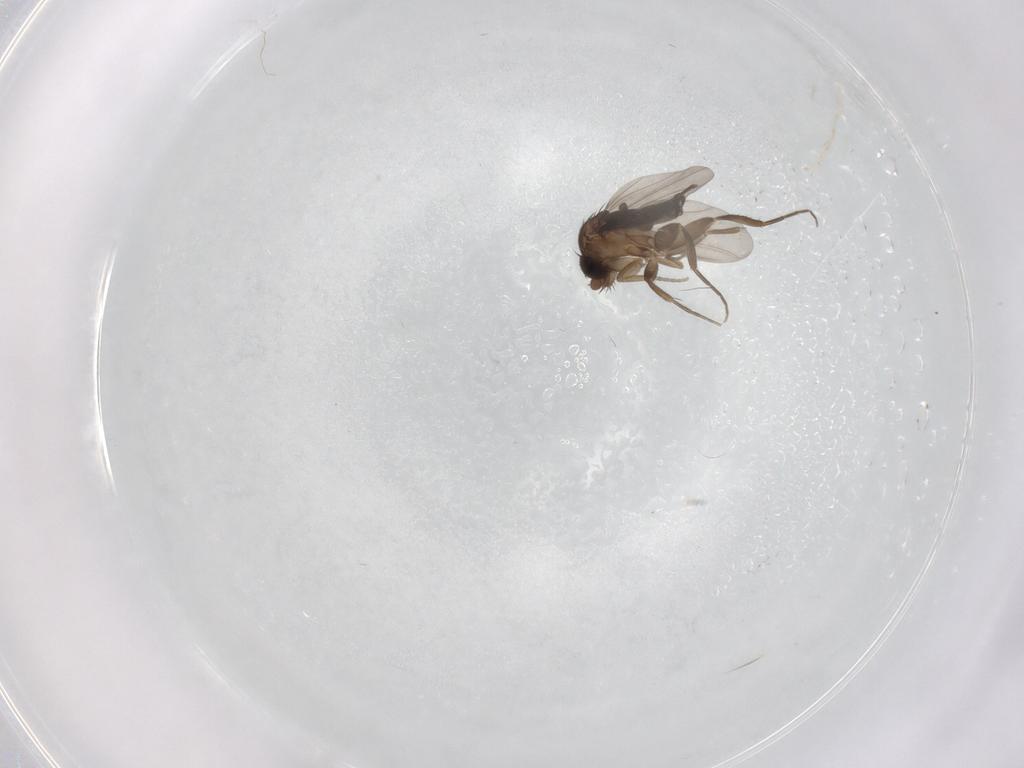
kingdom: Animalia
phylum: Arthropoda
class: Insecta
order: Diptera
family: Phoridae
